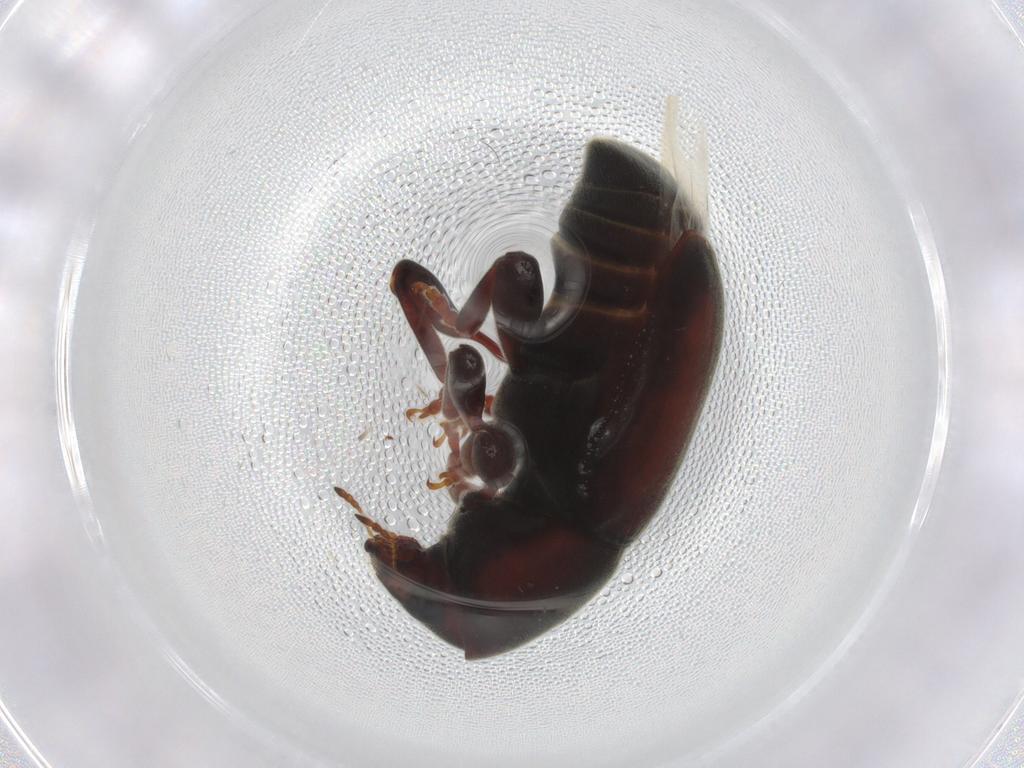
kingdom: Animalia
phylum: Arthropoda
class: Insecta
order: Coleoptera
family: Anthribidae
